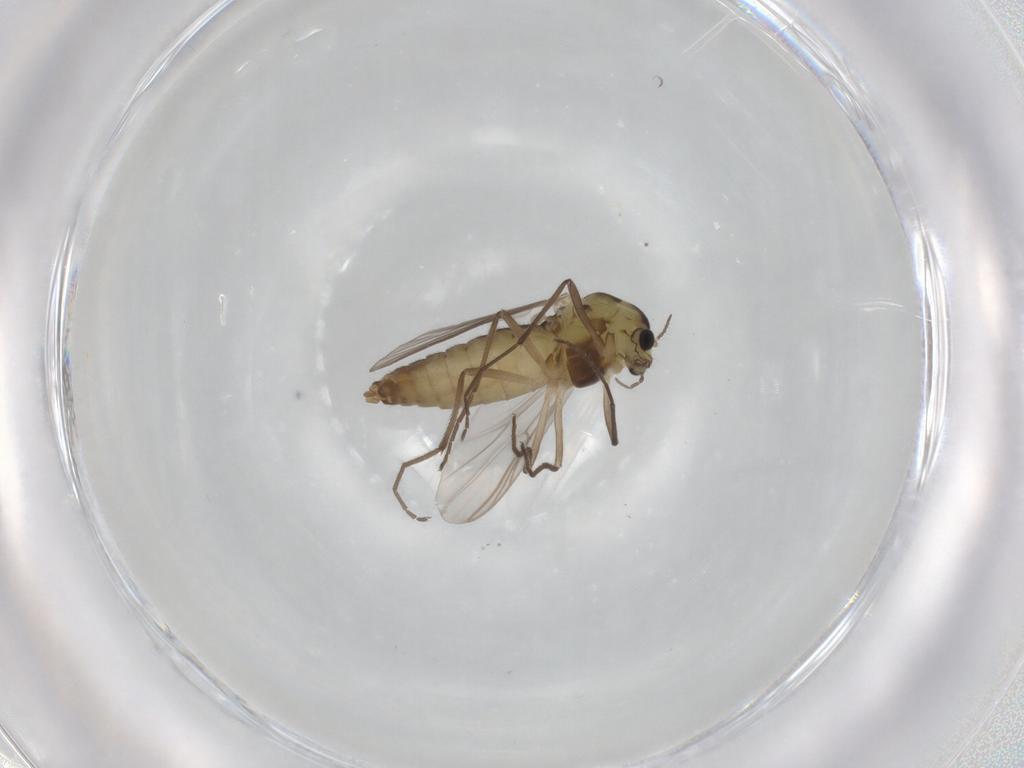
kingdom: Animalia
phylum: Arthropoda
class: Insecta
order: Diptera
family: Chironomidae
